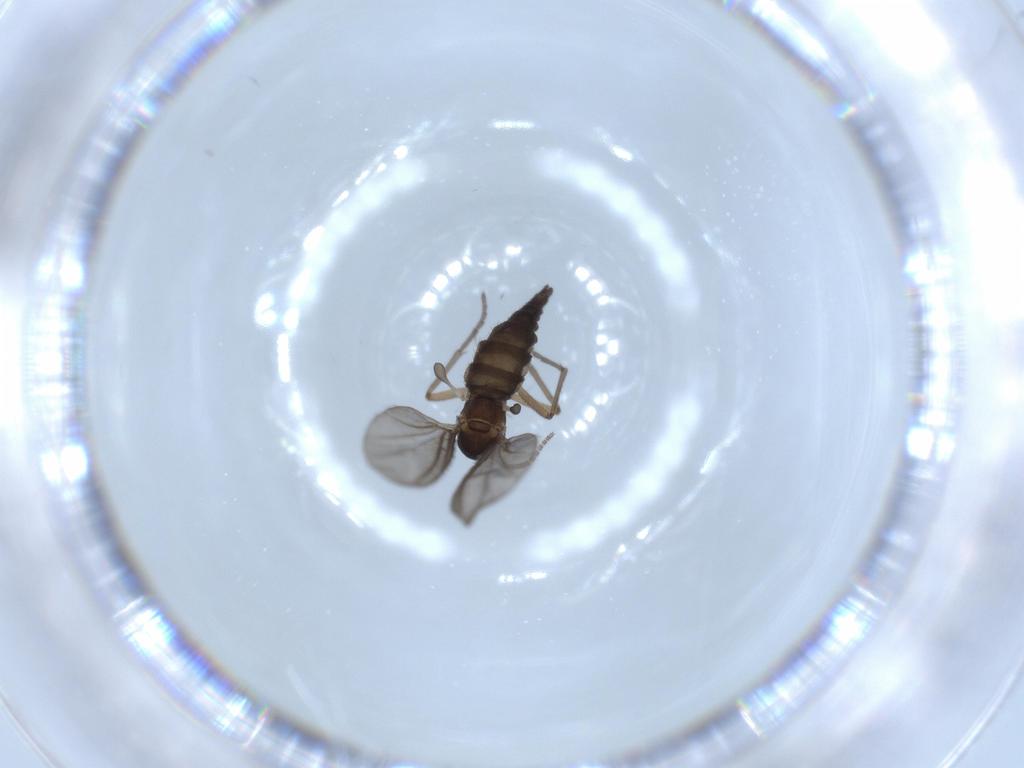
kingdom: Animalia
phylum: Arthropoda
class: Insecta
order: Diptera
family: Sciaridae
